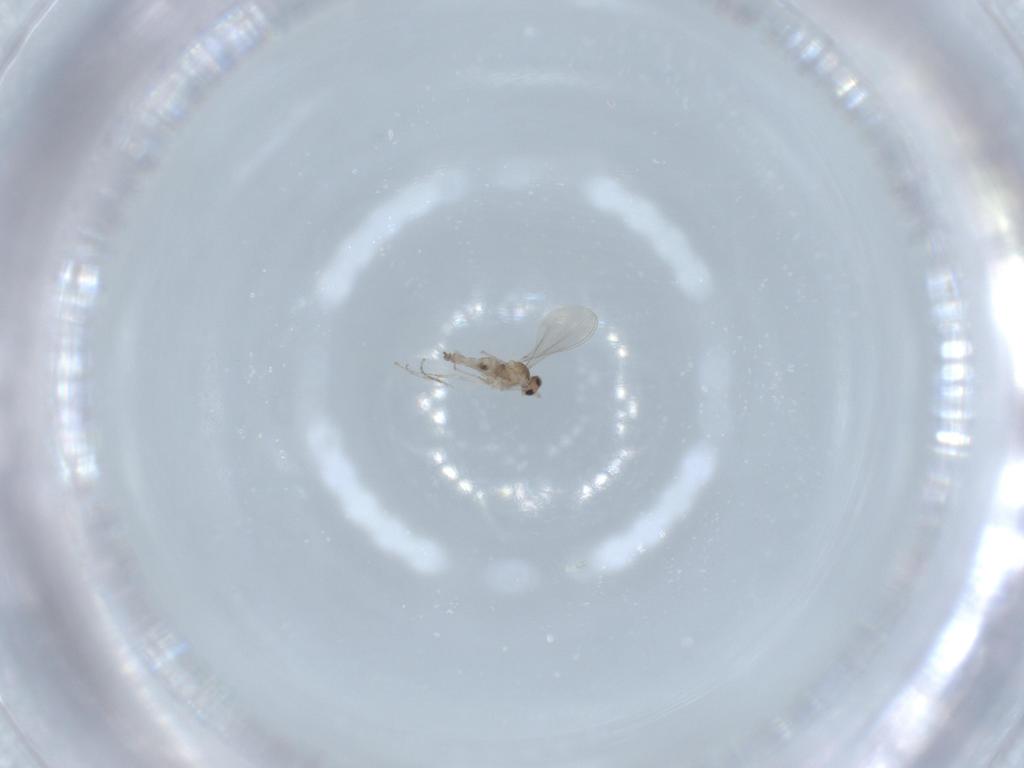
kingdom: Animalia
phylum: Arthropoda
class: Insecta
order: Diptera
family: Cecidomyiidae
